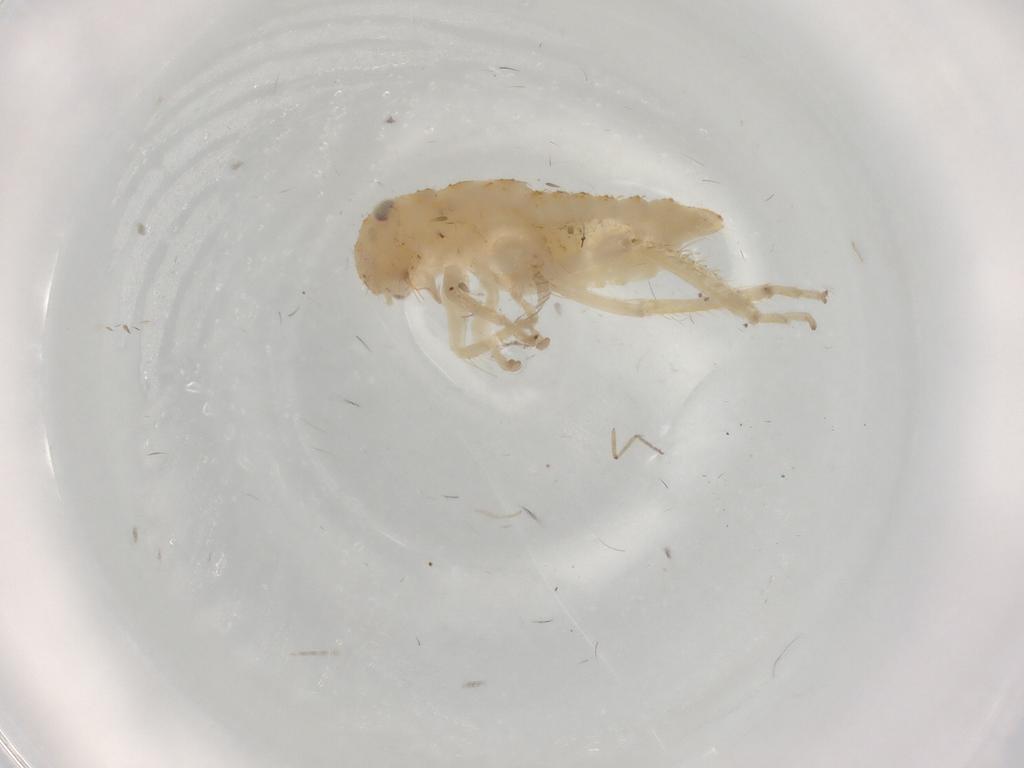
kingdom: Animalia
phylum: Arthropoda
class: Insecta
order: Hemiptera
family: Cicadellidae
